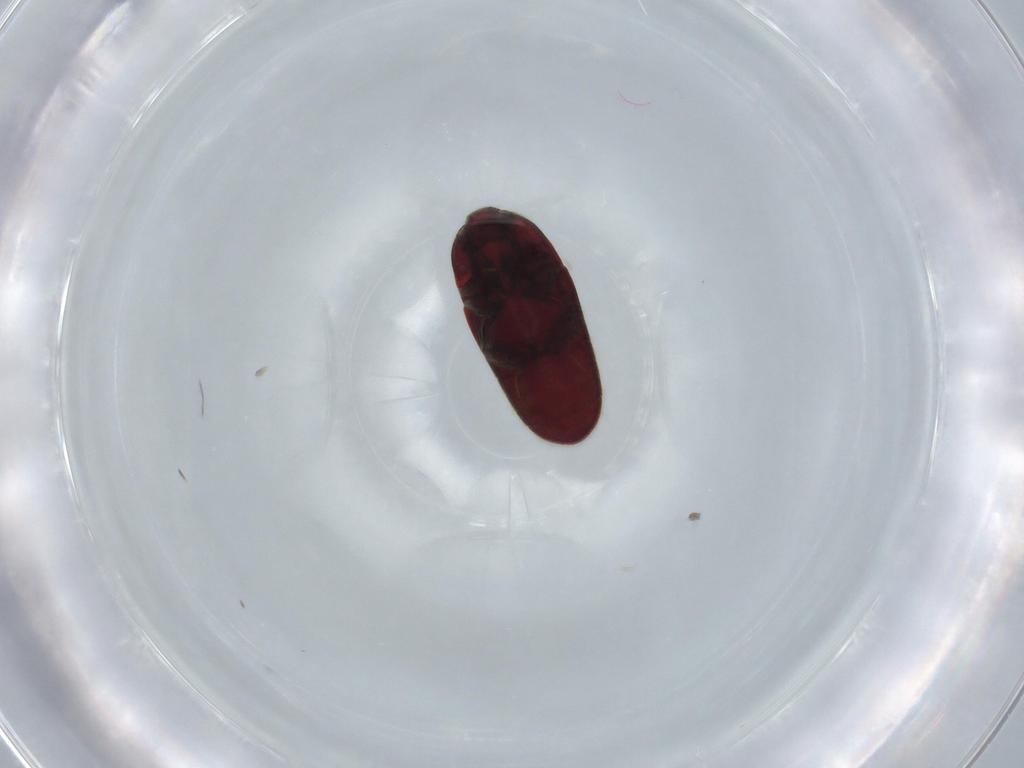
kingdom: Animalia
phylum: Arthropoda
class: Insecta
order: Coleoptera
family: Throscidae
